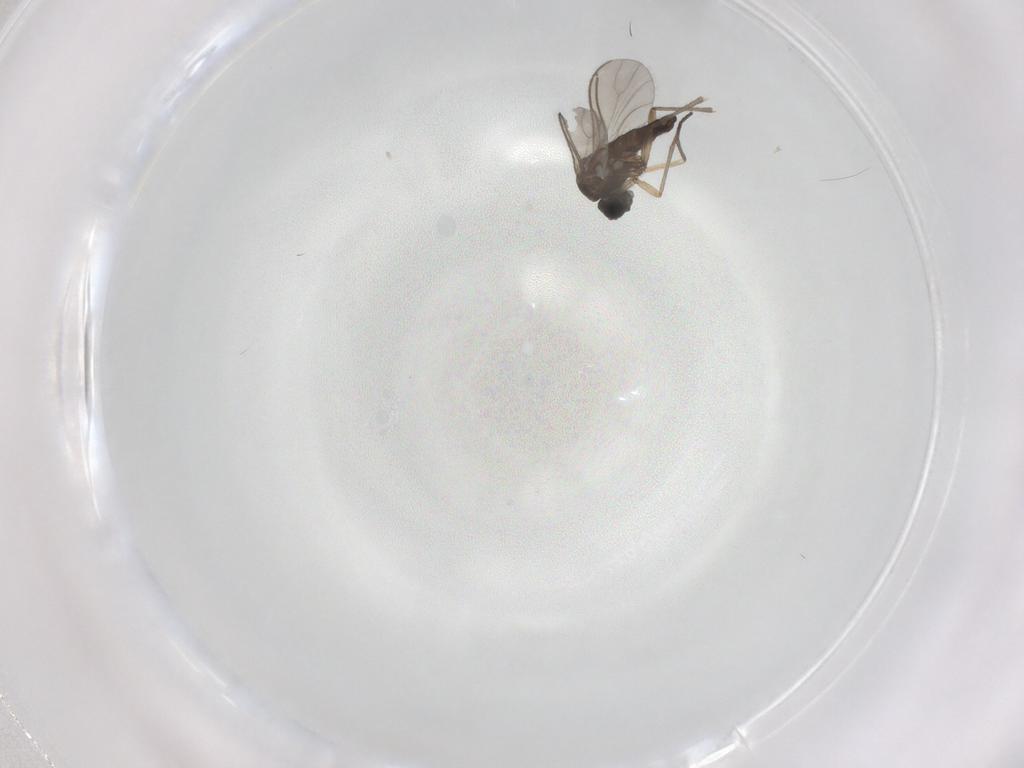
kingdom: Animalia
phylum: Arthropoda
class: Insecta
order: Diptera
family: Sciaridae
